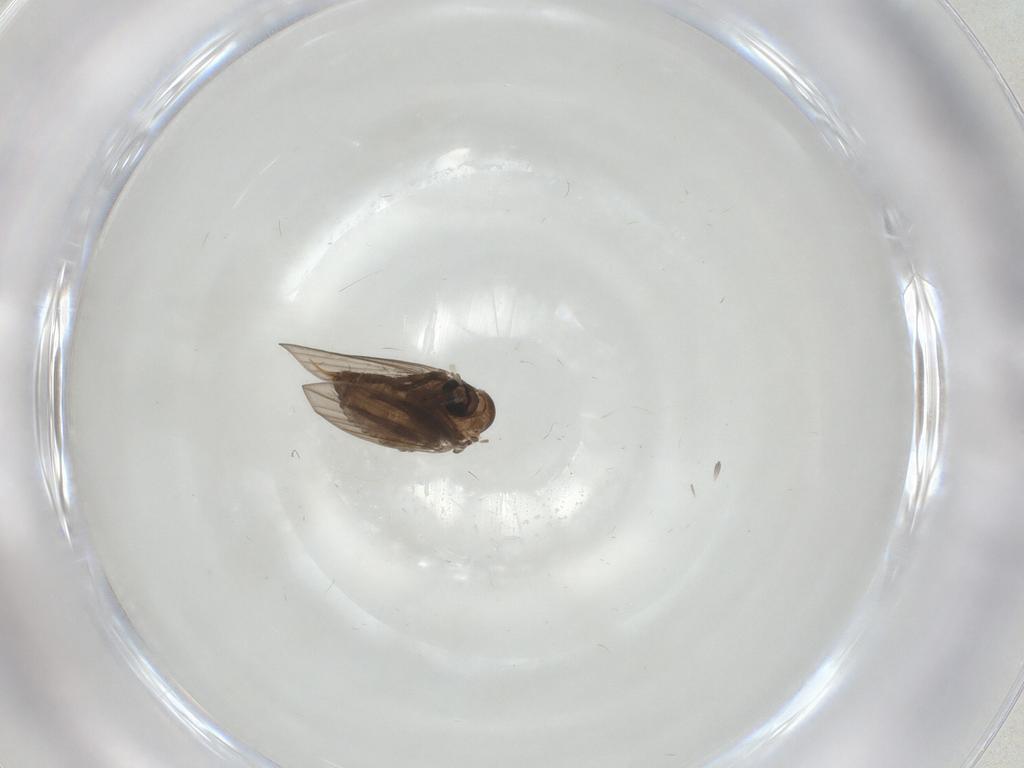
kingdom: Animalia
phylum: Arthropoda
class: Insecta
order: Diptera
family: Psychodidae
